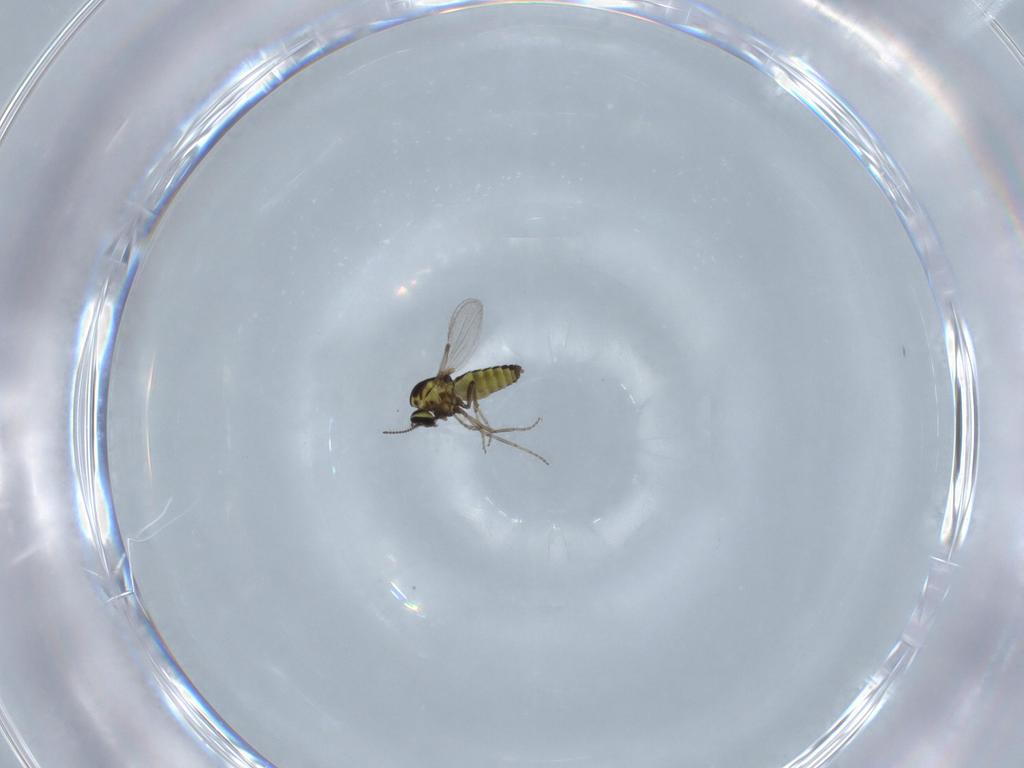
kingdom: Animalia
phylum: Arthropoda
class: Insecta
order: Diptera
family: Ceratopogonidae
